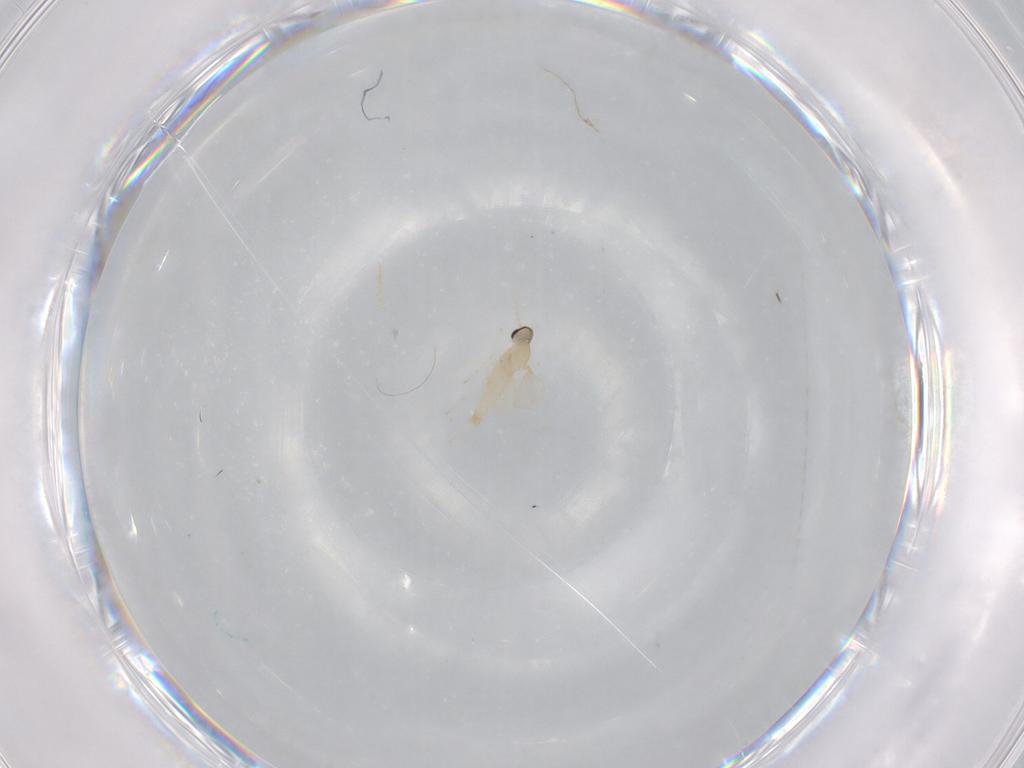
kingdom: Animalia
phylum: Arthropoda
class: Insecta
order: Diptera
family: Cecidomyiidae
